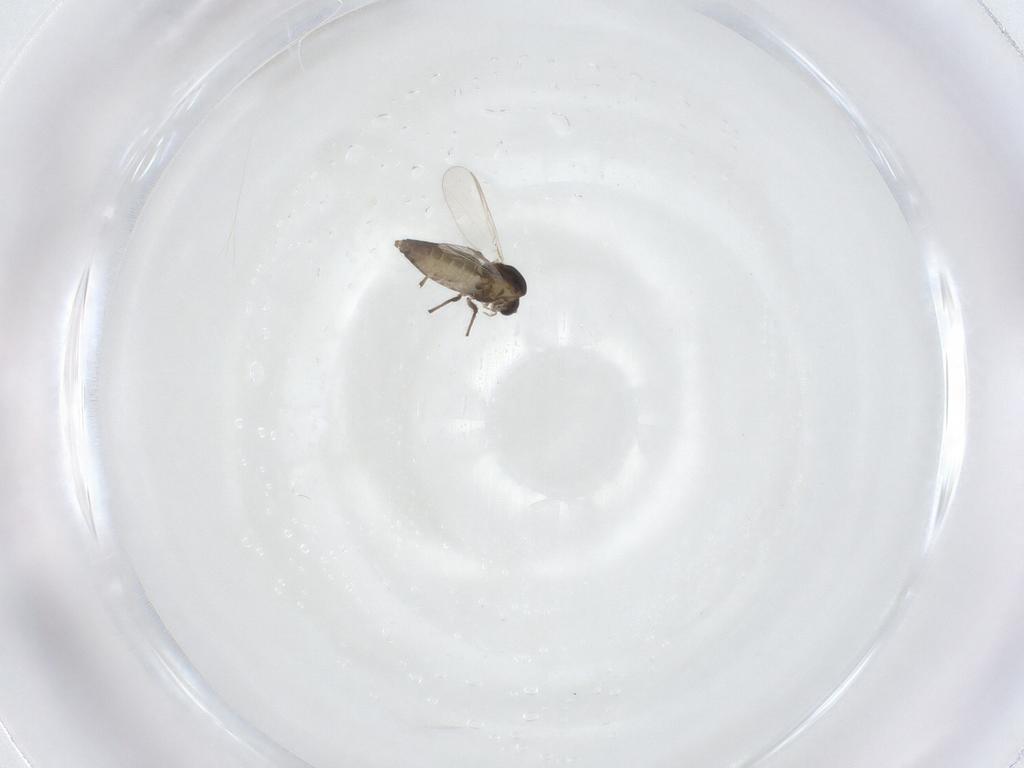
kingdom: Animalia
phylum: Arthropoda
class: Insecta
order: Diptera
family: Chironomidae
